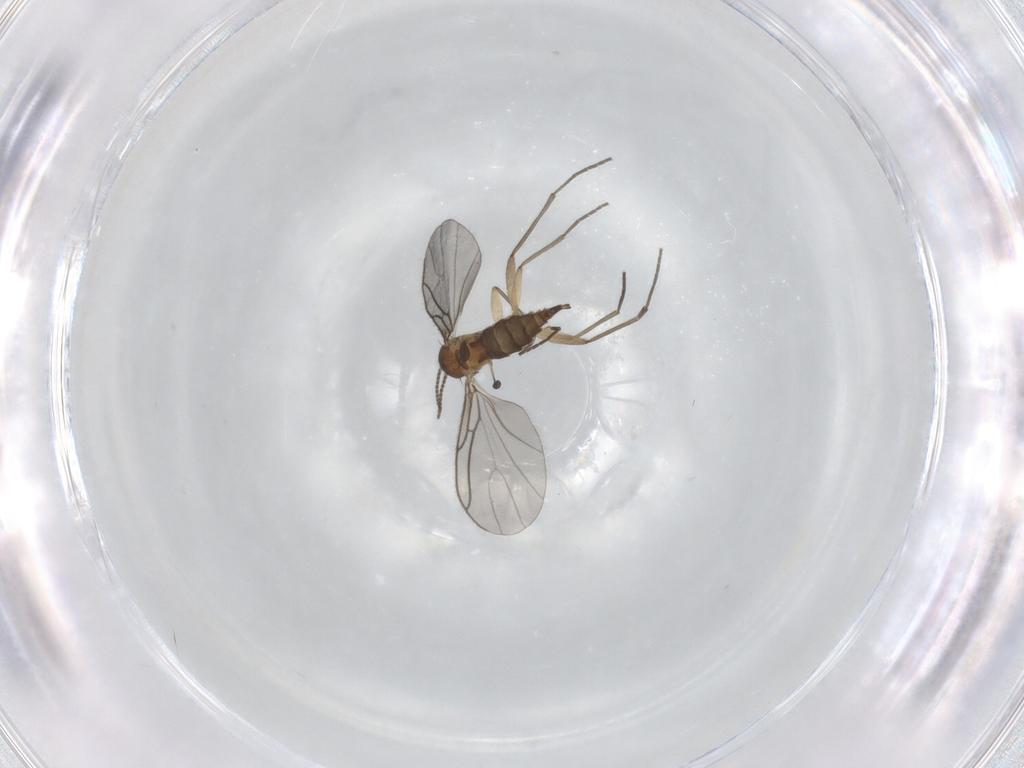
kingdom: Animalia
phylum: Arthropoda
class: Insecta
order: Diptera
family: Sciaridae
